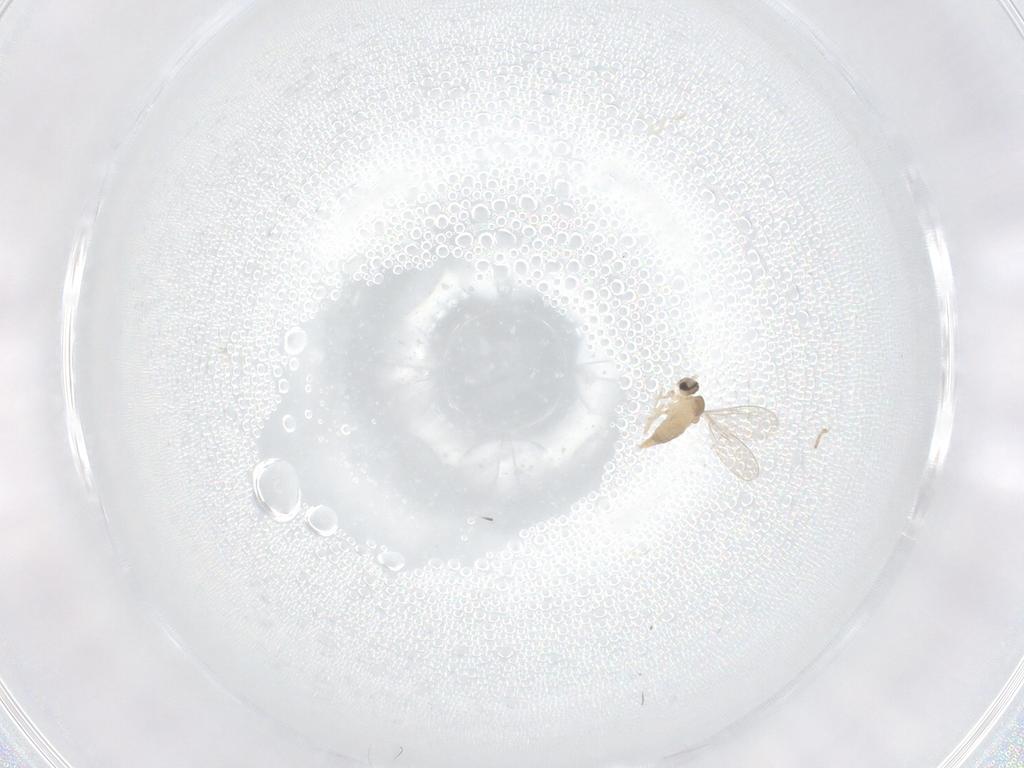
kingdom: Animalia
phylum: Arthropoda
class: Insecta
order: Diptera
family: Cecidomyiidae
